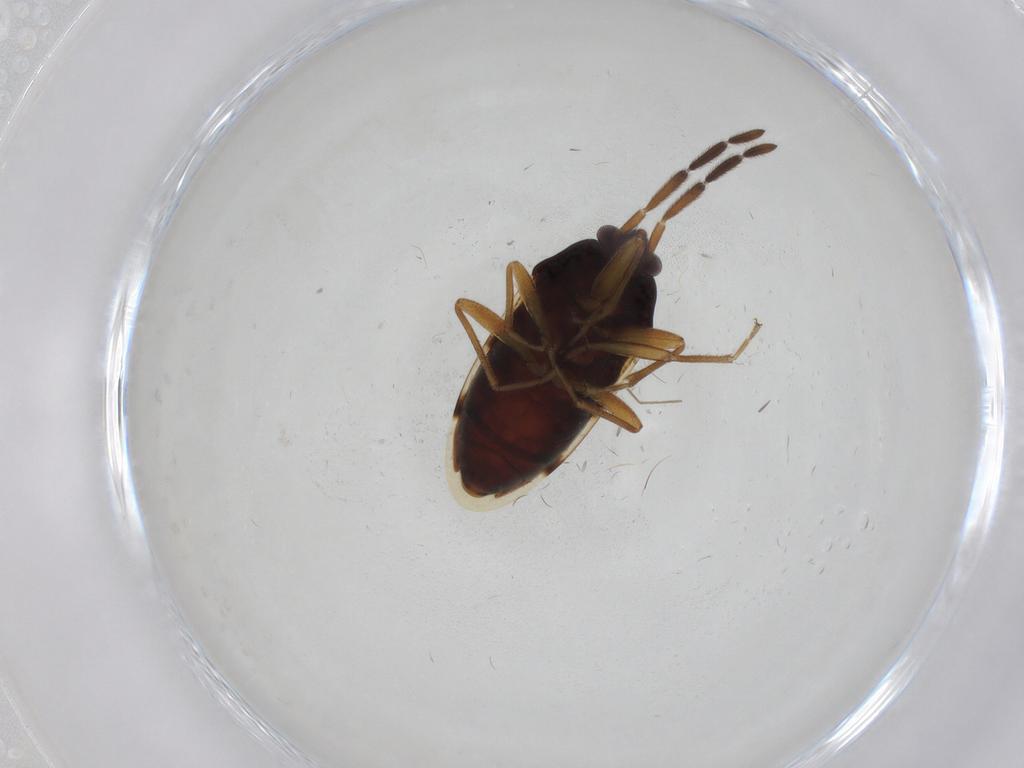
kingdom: Animalia
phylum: Arthropoda
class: Insecta
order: Hemiptera
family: Rhyparochromidae
